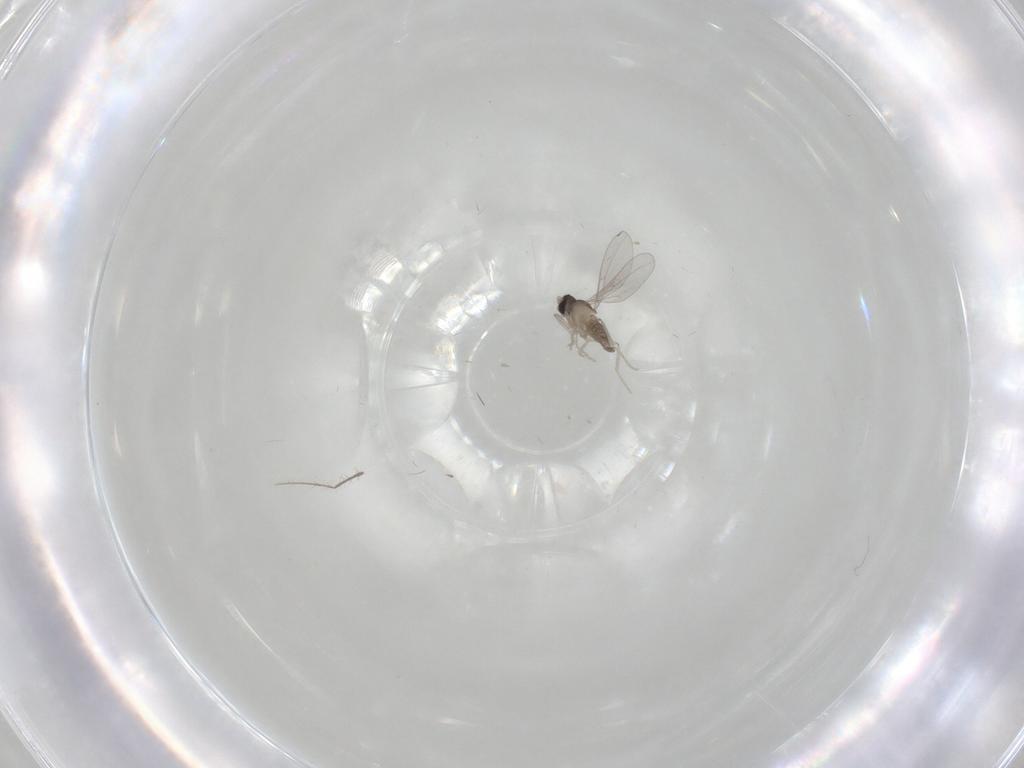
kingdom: Animalia
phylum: Arthropoda
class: Insecta
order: Diptera
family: Cecidomyiidae
